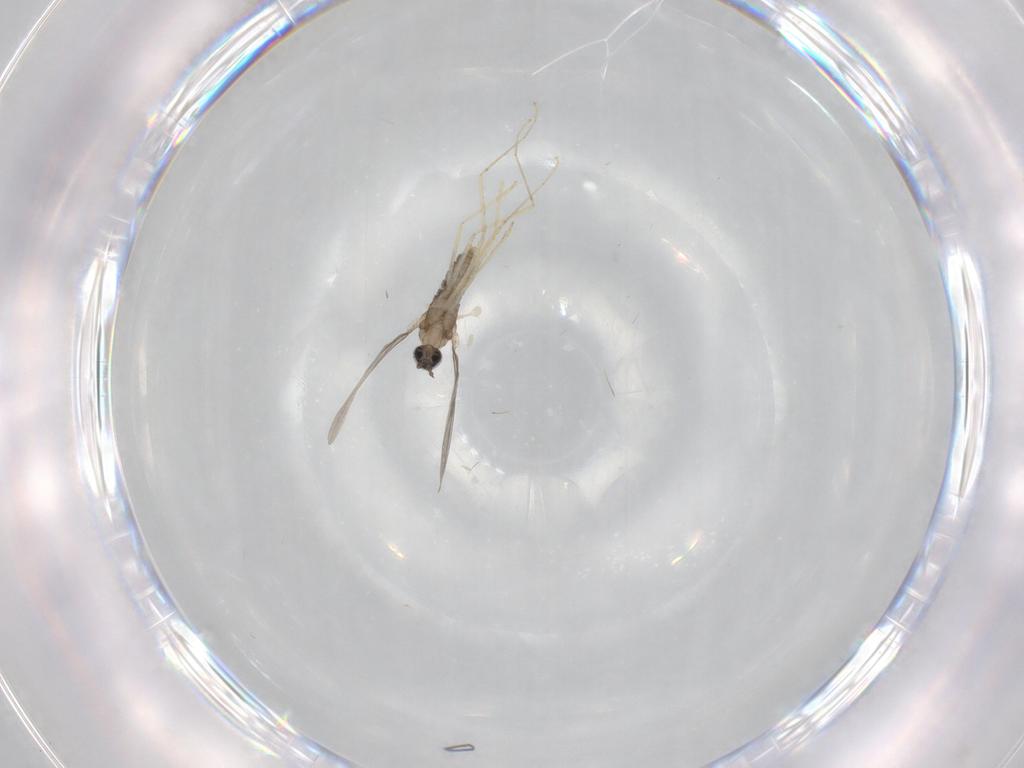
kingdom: Animalia
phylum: Arthropoda
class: Insecta
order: Diptera
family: Cecidomyiidae
